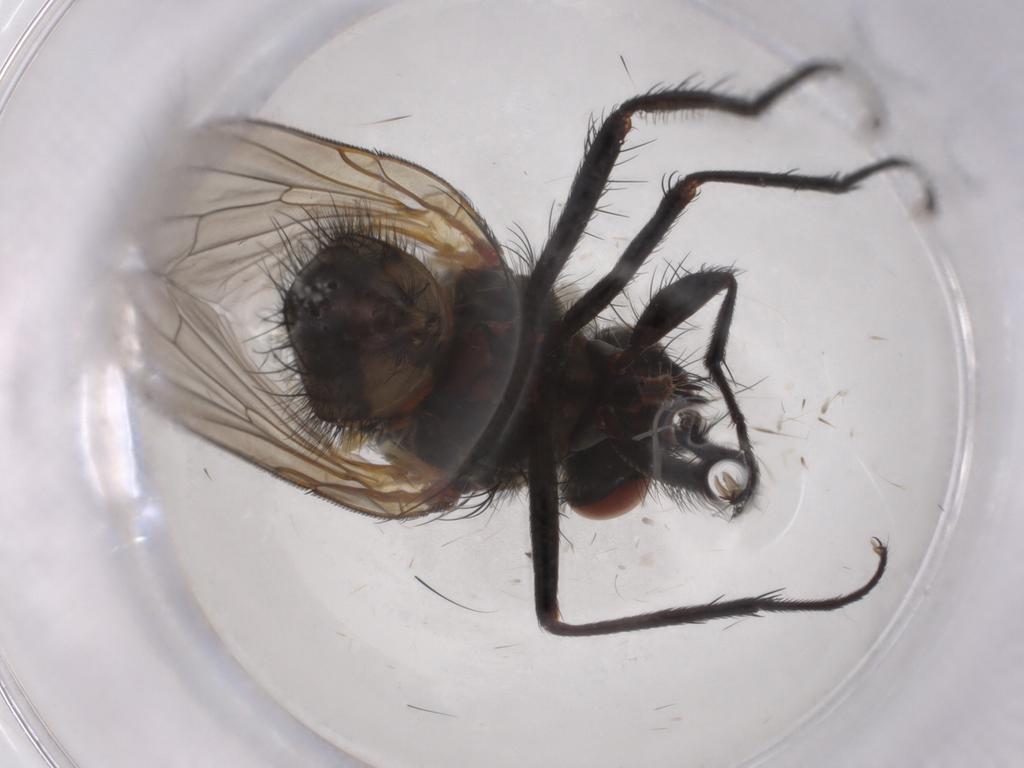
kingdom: Animalia
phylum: Arthropoda
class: Insecta
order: Diptera
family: Anthomyiidae
